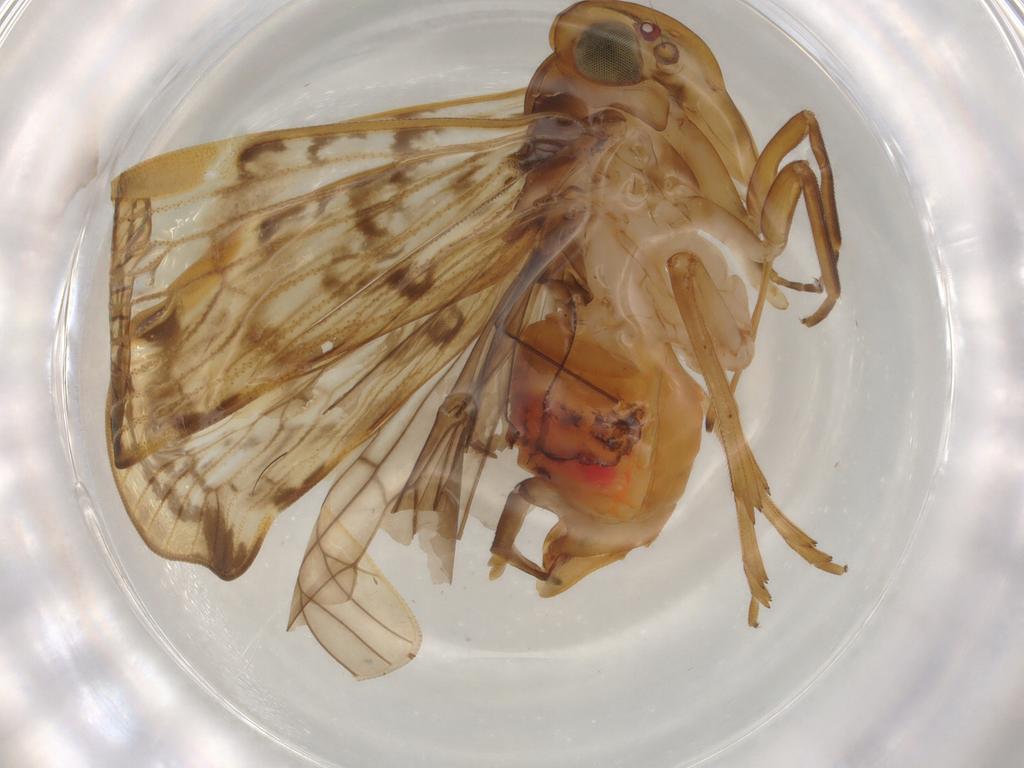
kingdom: Animalia
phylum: Arthropoda
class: Insecta
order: Hemiptera
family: Cixiidae
